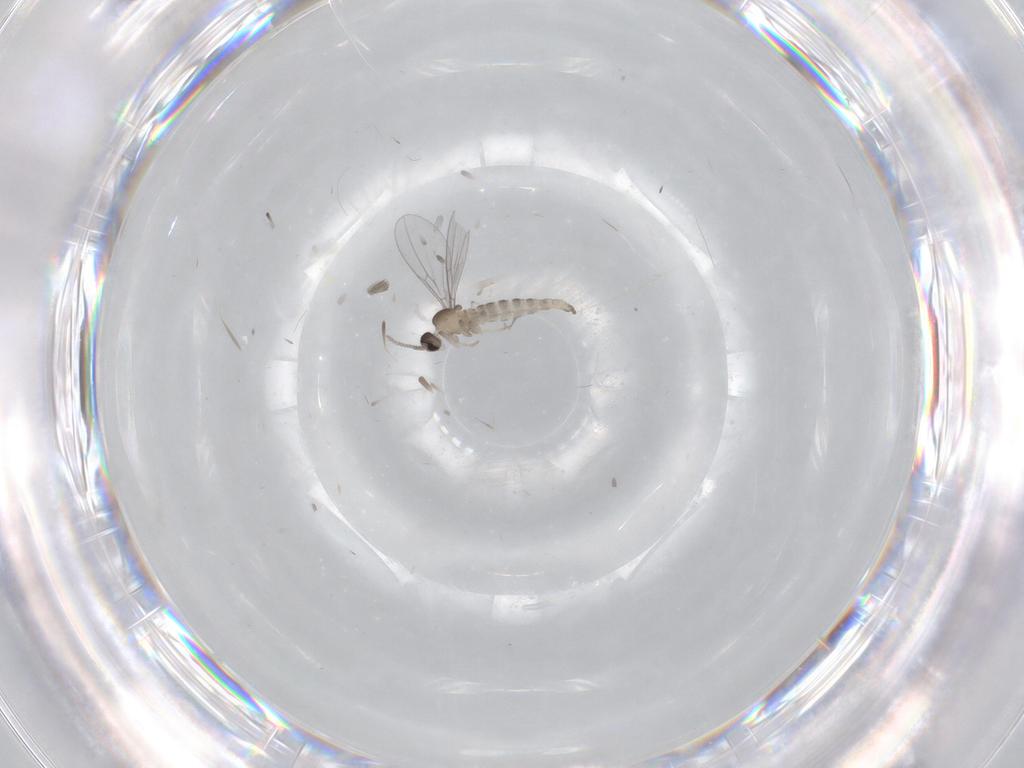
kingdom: Animalia
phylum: Arthropoda
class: Insecta
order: Diptera
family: Cecidomyiidae
